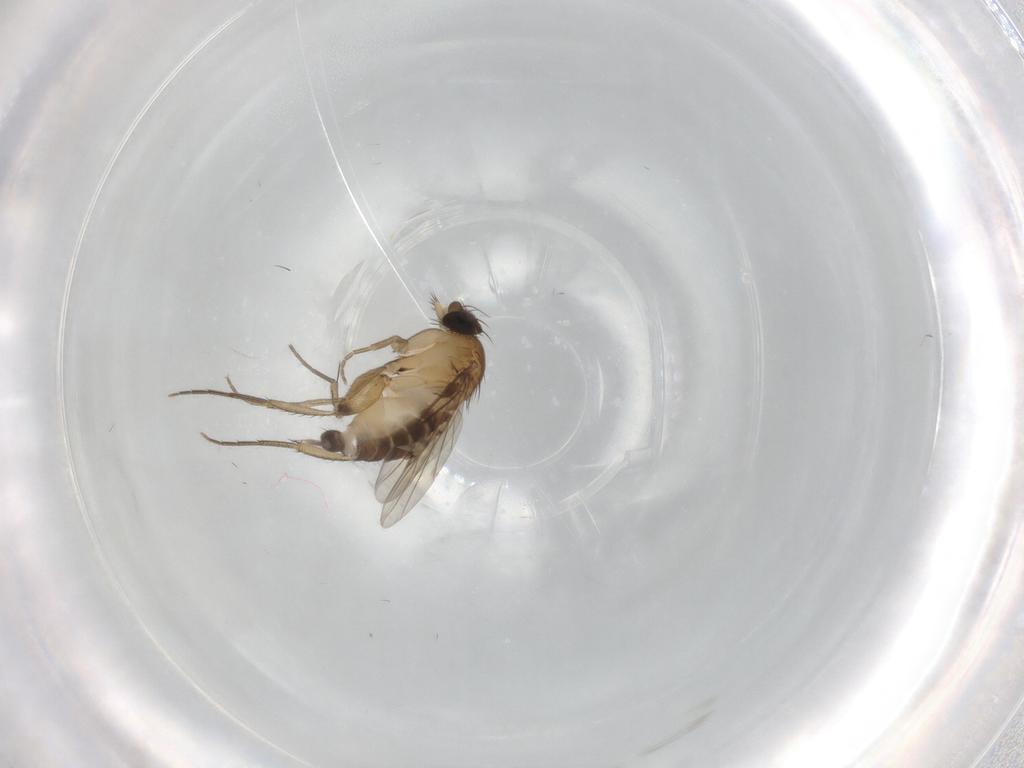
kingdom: Animalia
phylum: Arthropoda
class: Insecta
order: Diptera
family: Phoridae
